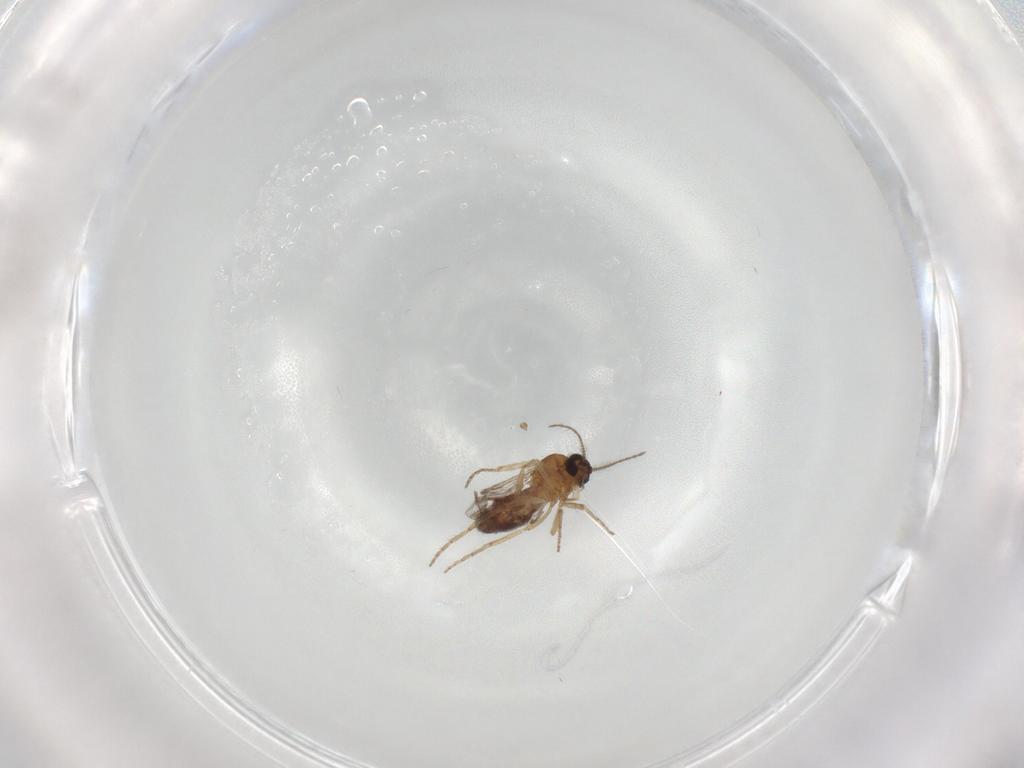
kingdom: Animalia
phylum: Arthropoda
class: Insecta
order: Diptera
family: Chironomidae
